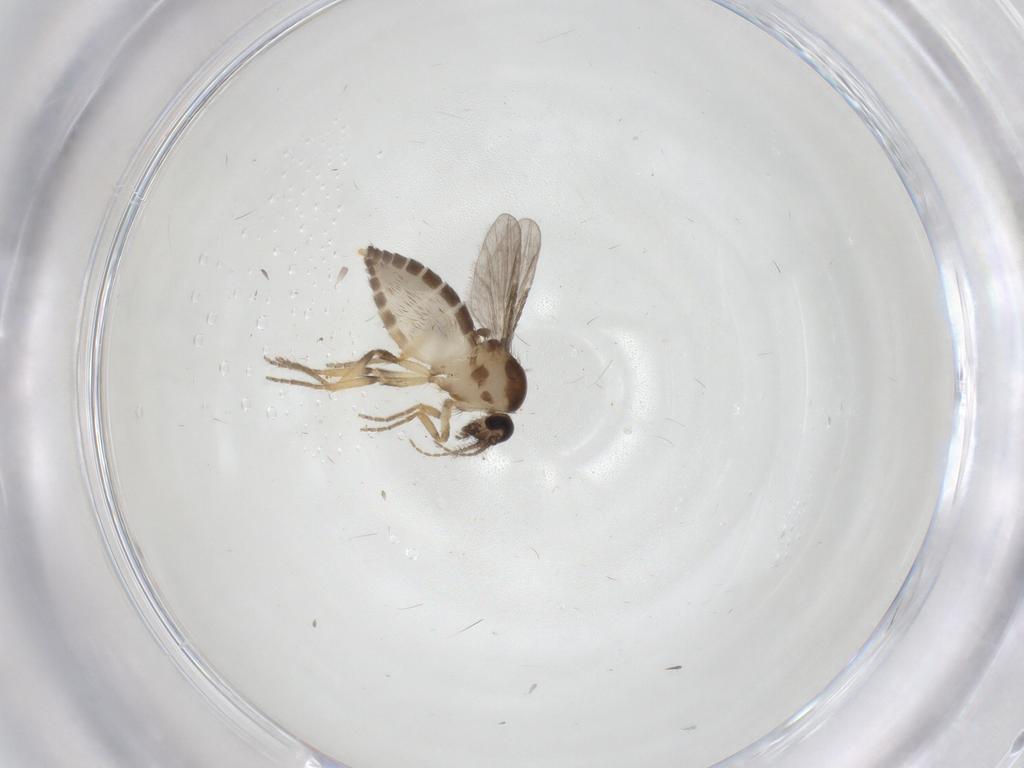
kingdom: Animalia
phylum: Arthropoda
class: Insecta
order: Diptera
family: Ceratopogonidae
